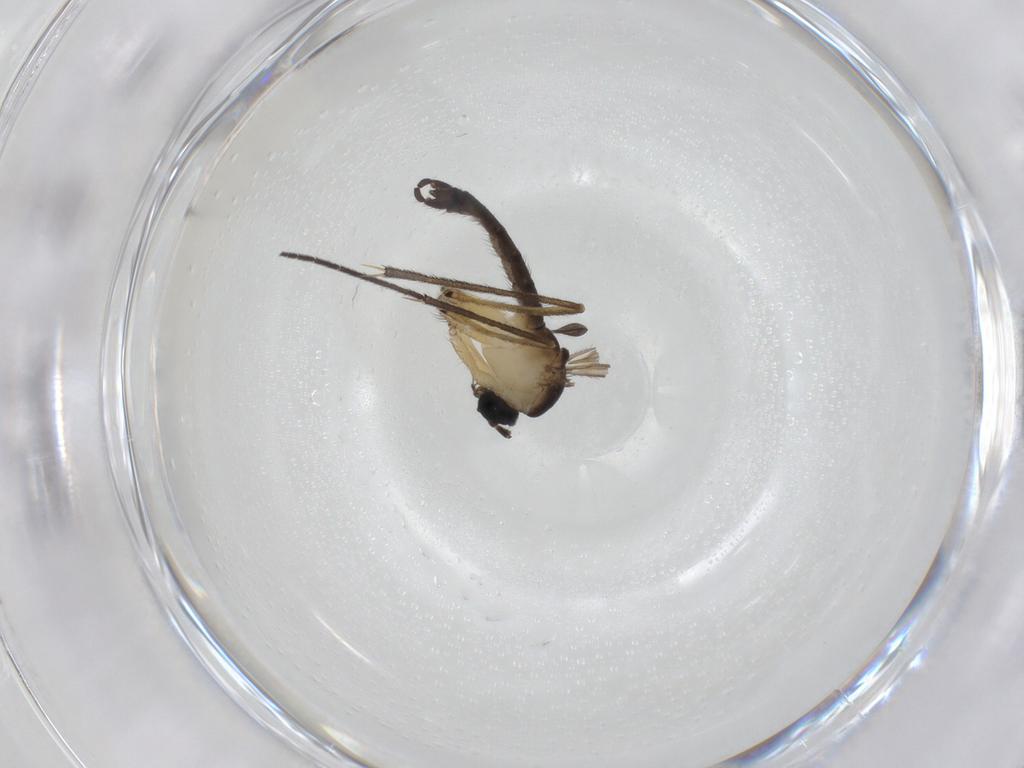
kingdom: Animalia
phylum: Arthropoda
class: Insecta
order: Diptera
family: Sciaridae
